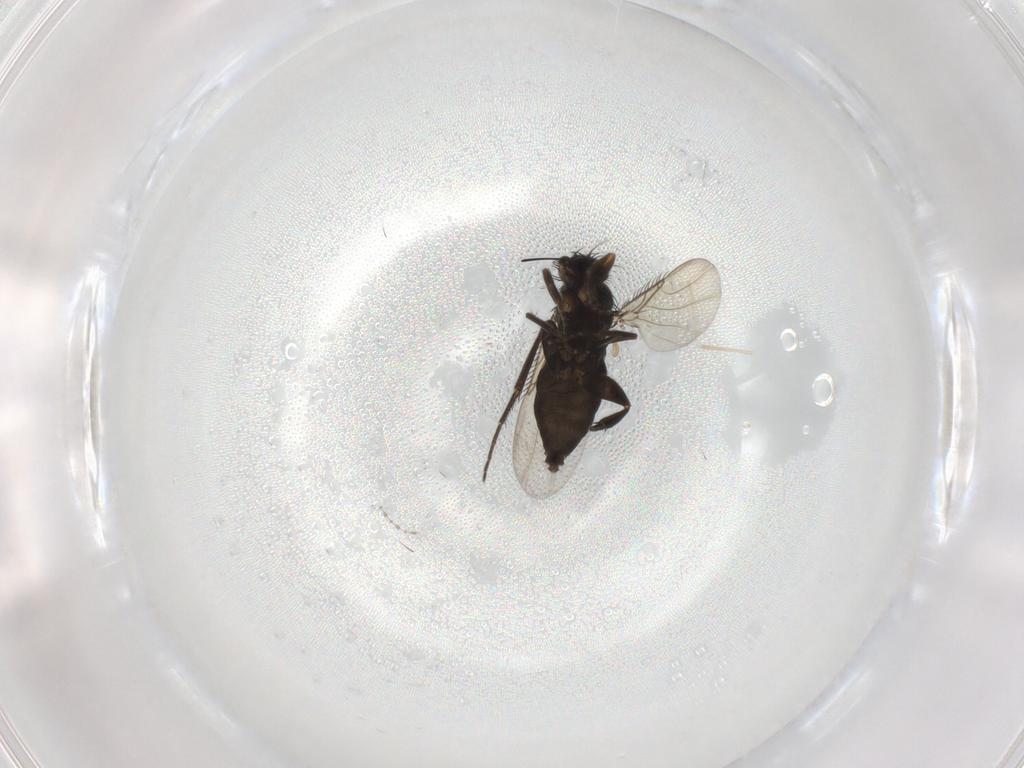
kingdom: Animalia
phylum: Arthropoda
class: Insecta
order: Diptera
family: Phoridae
